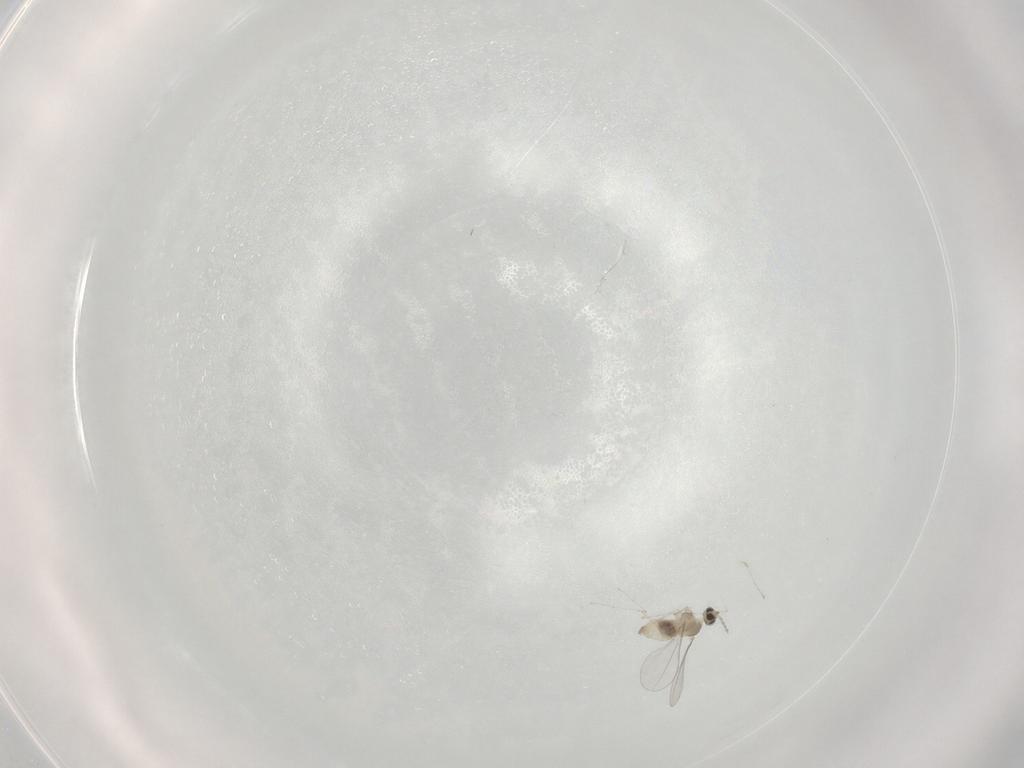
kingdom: Animalia
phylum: Arthropoda
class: Insecta
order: Diptera
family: Cecidomyiidae
